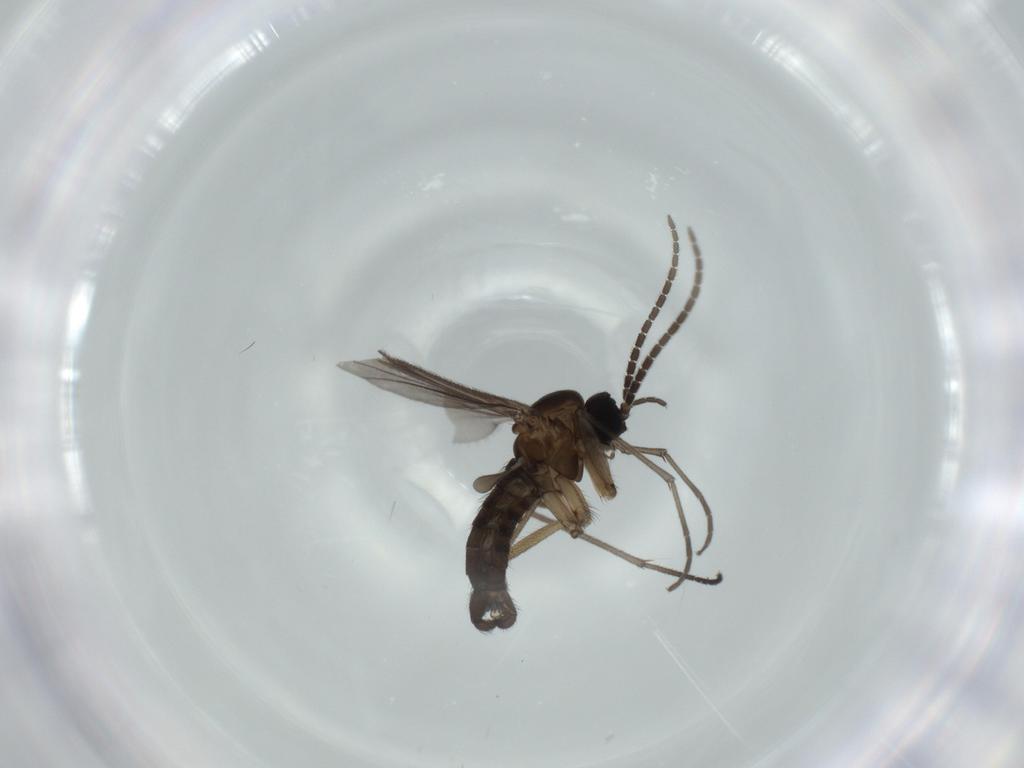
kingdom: Animalia
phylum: Arthropoda
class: Insecta
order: Diptera
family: Sciaridae
